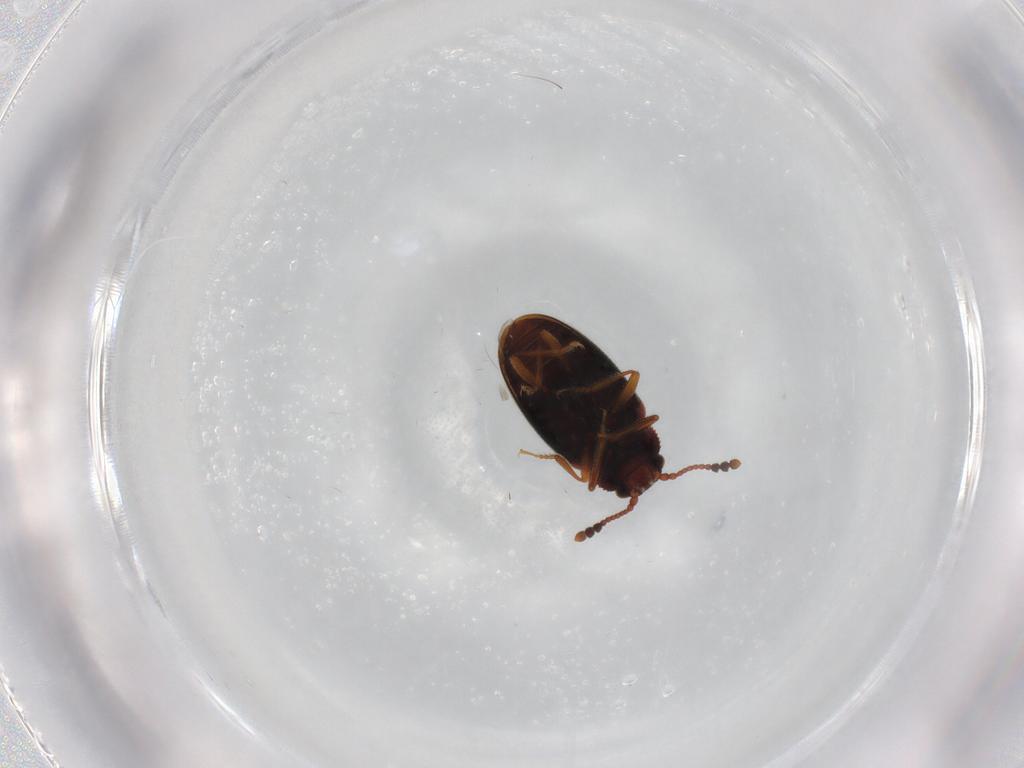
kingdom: Animalia
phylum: Arthropoda
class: Insecta
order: Coleoptera
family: Cryptophagidae
